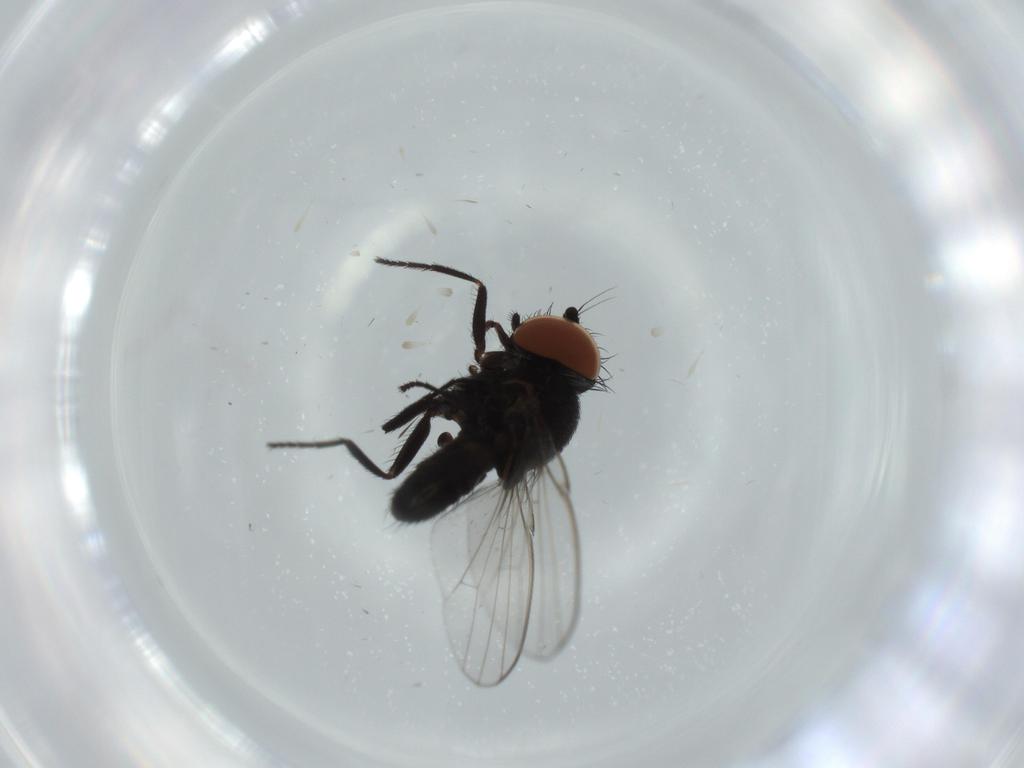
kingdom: Animalia
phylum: Arthropoda
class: Insecta
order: Diptera
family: Milichiidae
